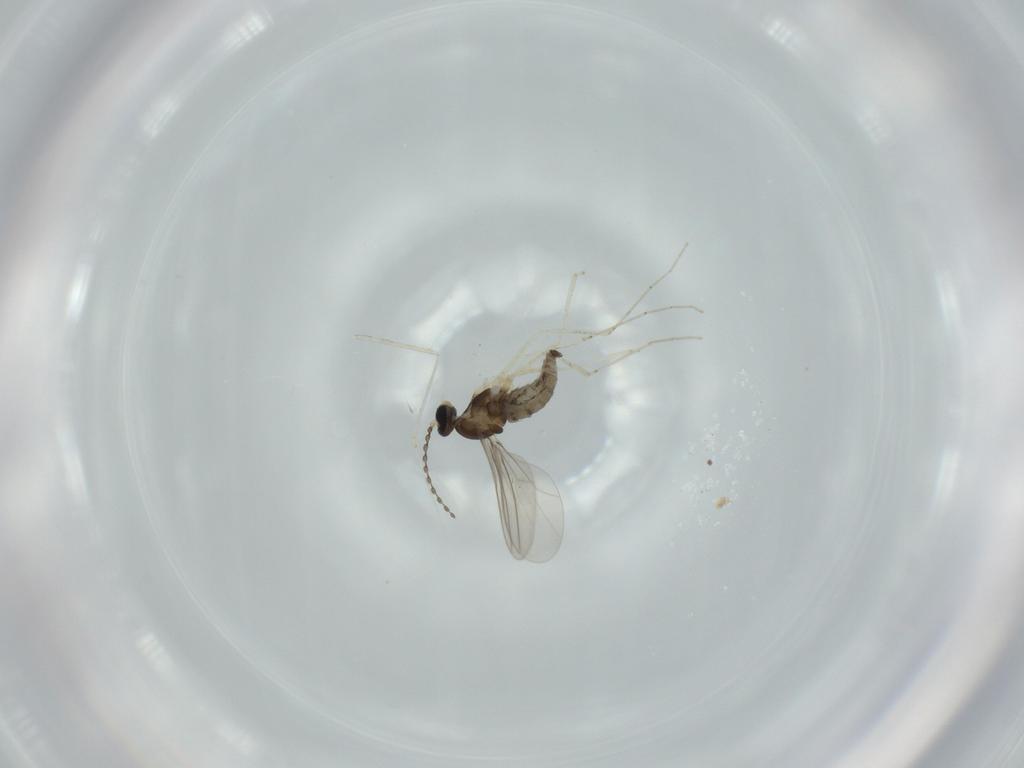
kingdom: Animalia
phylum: Arthropoda
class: Insecta
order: Diptera
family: Cecidomyiidae
